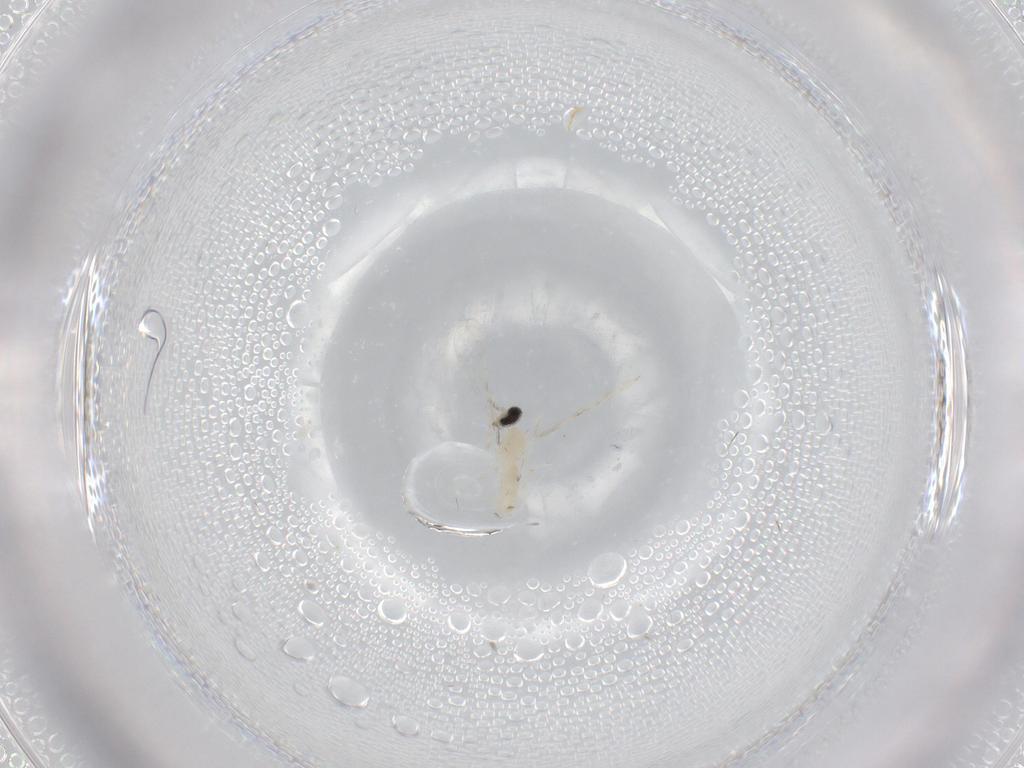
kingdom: Animalia
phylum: Arthropoda
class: Insecta
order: Diptera
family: Cecidomyiidae
